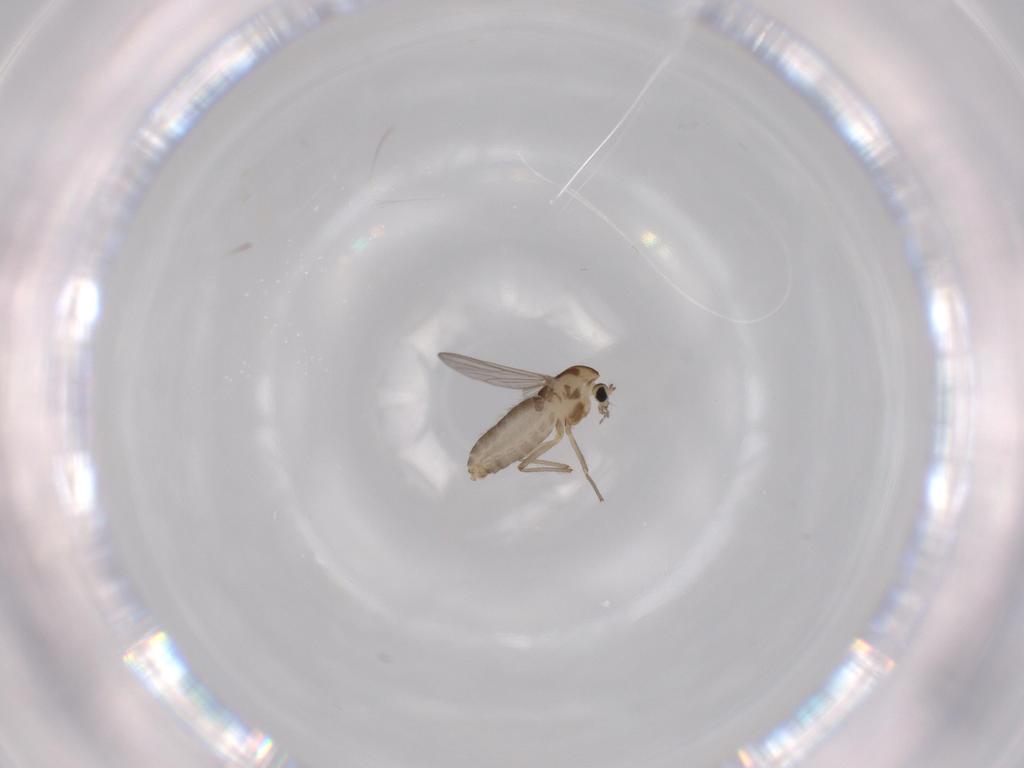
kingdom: Animalia
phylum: Arthropoda
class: Insecta
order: Diptera
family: Chironomidae
